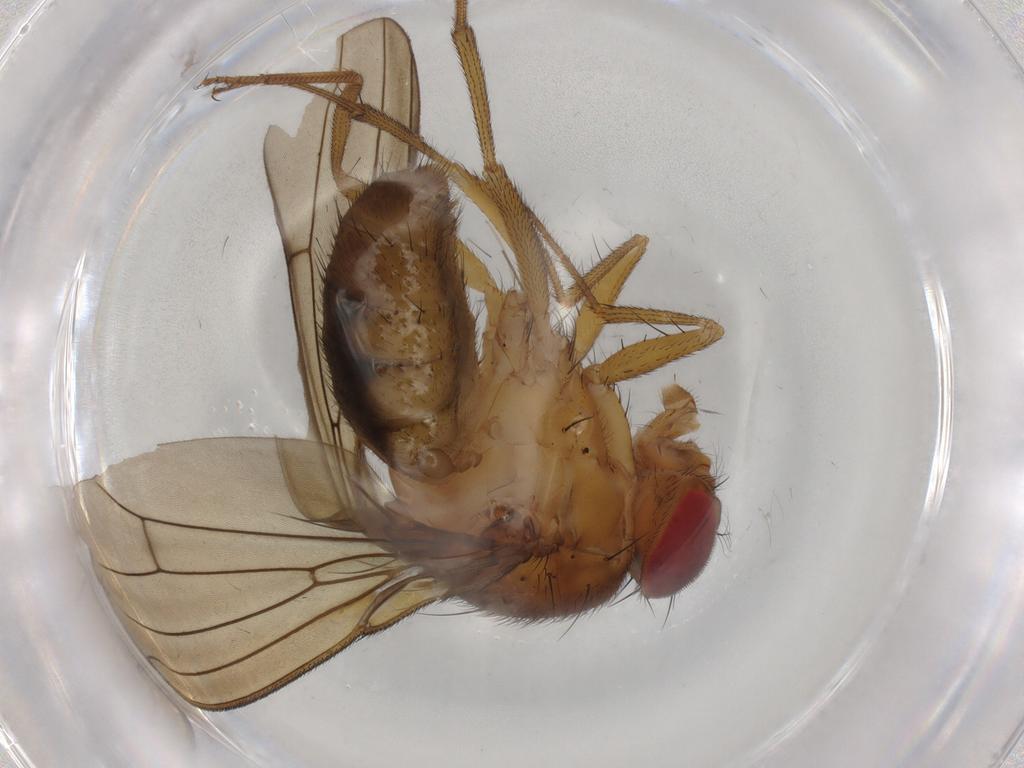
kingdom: Animalia
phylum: Arthropoda
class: Insecta
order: Diptera
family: Drosophilidae
